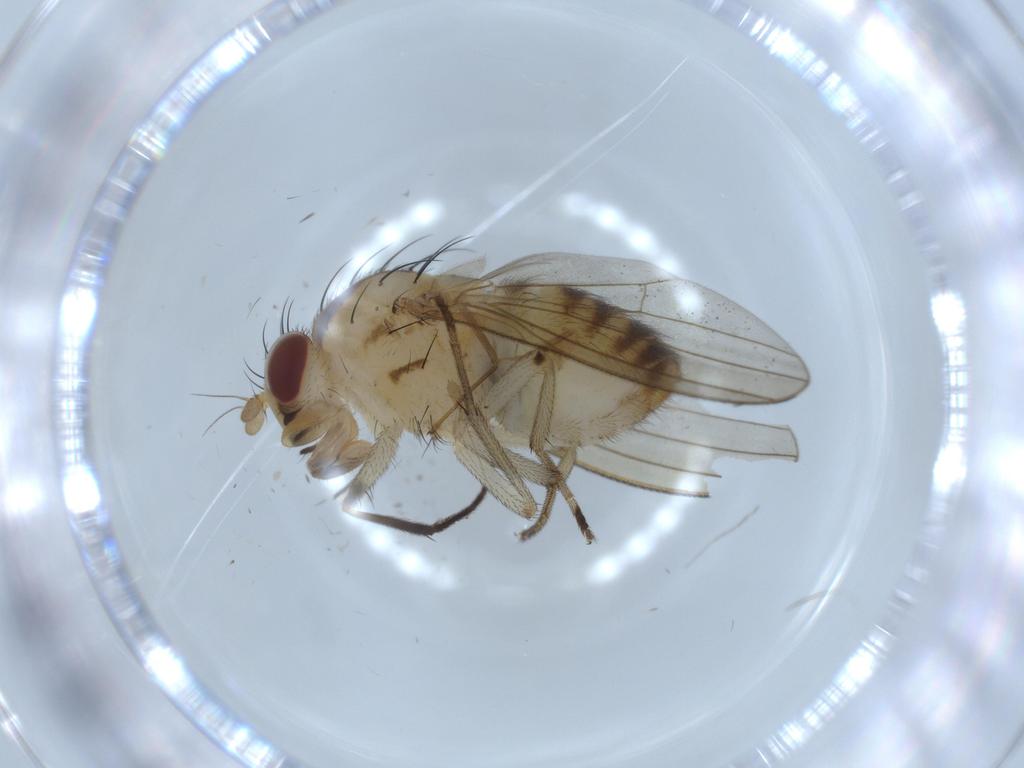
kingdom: Animalia
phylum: Arthropoda
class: Insecta
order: Diptera
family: Lauxaniidae
